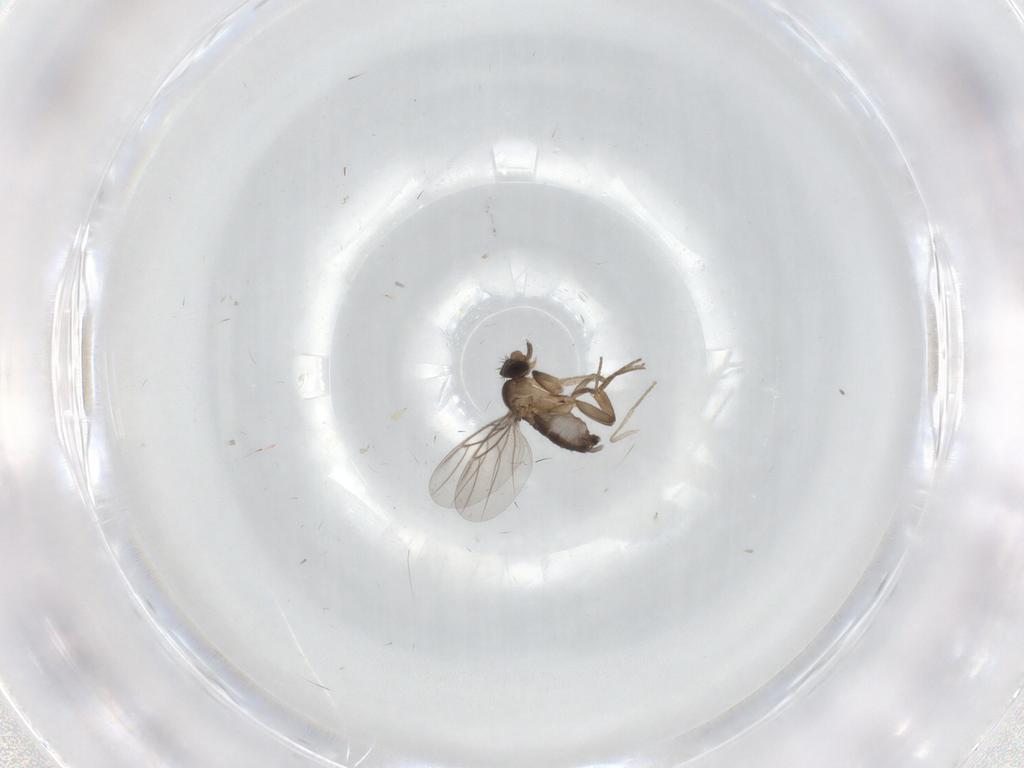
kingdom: Animalia
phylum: Arthropoda
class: Insecta
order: Diptera
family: Phoridae
